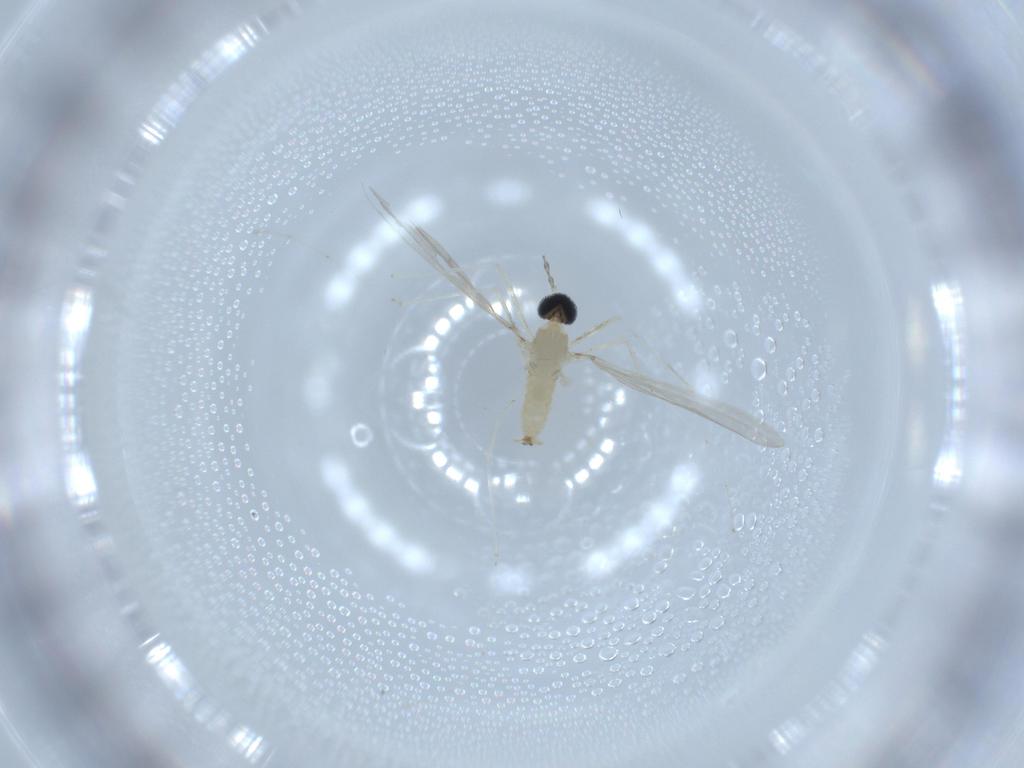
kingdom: Animalia
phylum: Arthropoda
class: Insecta
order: Diptera
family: Cecidomyiidae
